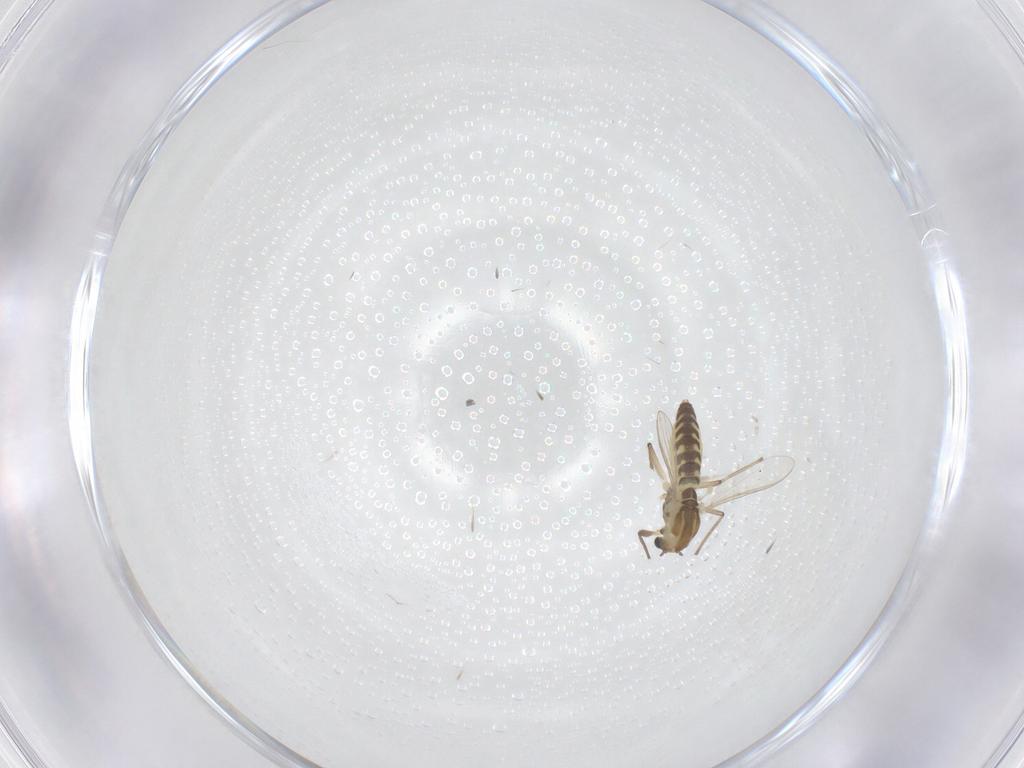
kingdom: Animalia
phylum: Arthropoda
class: Insecta
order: Diptera
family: Chironomidae
